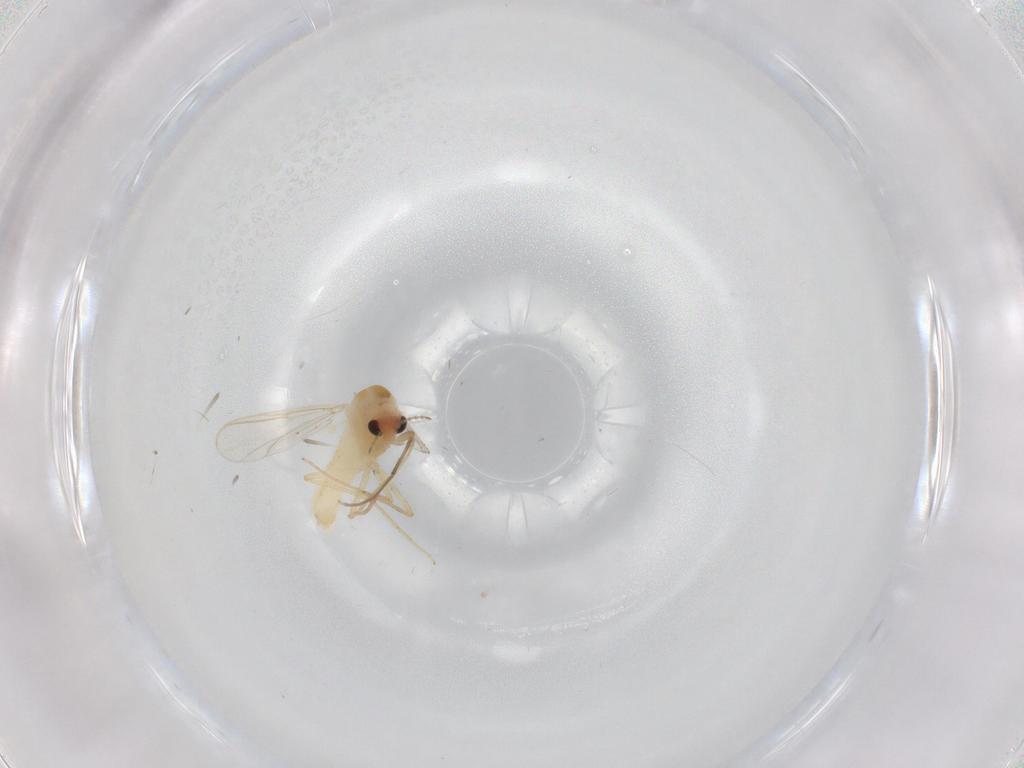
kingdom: Animalia
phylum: Arthropoda
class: Insecta
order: Diptera
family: Chironomidae
